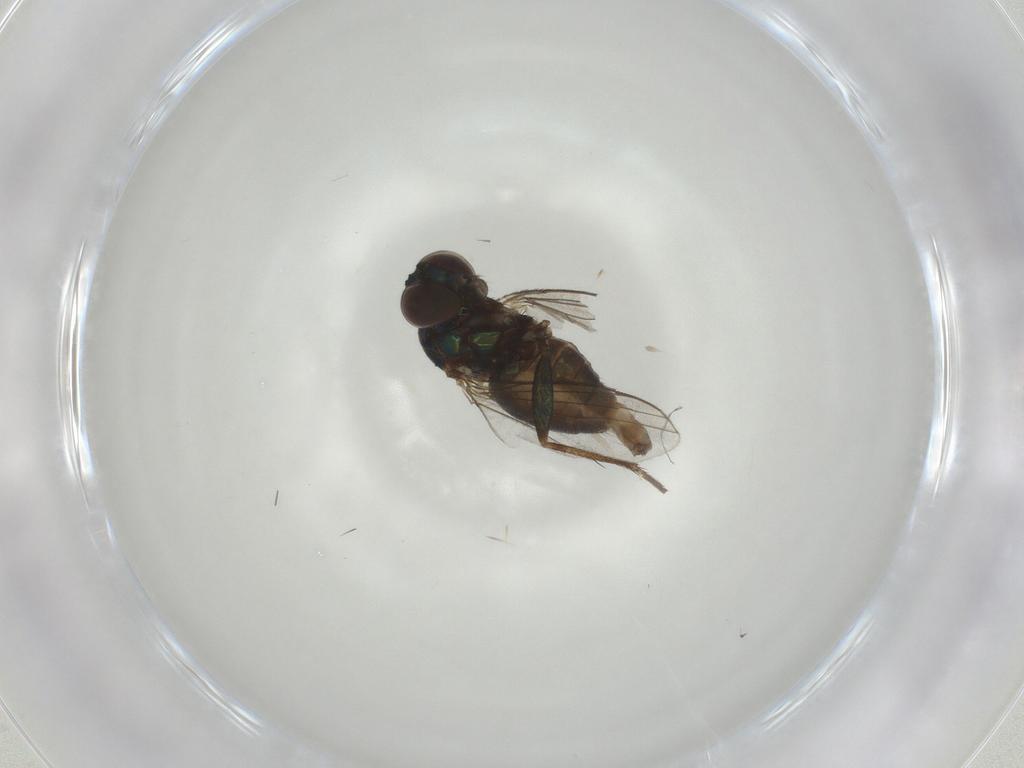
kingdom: Animalia
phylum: Arthropoda
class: Insecta
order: Diptera
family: Dolichopodidae
